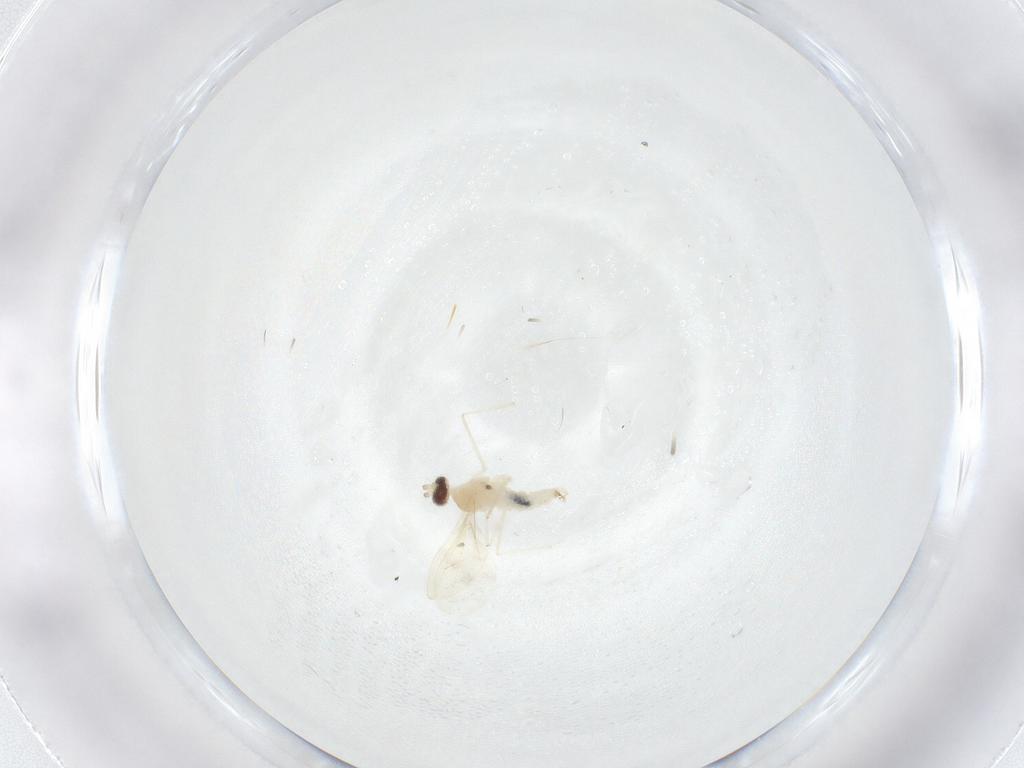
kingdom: Animalia
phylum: Arthropoda
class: Insecta
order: Diptera
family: Cecidomyiidae
